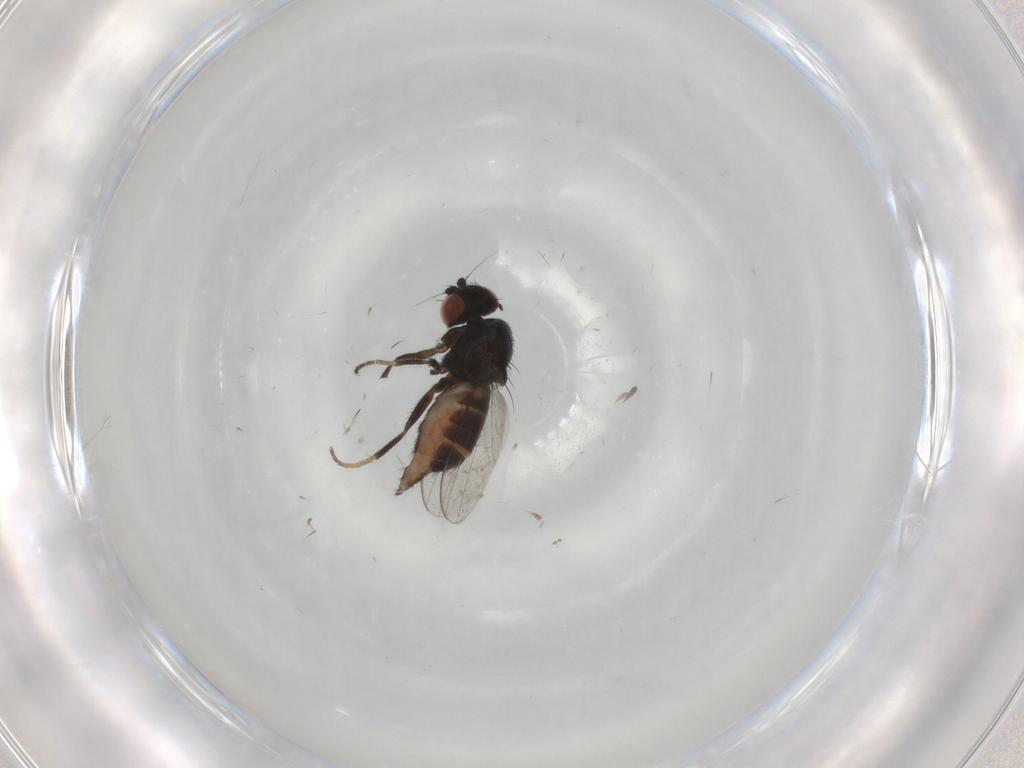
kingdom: Animalia
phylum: Arthropoda
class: Insecta
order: Diptera
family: Milichiidae
